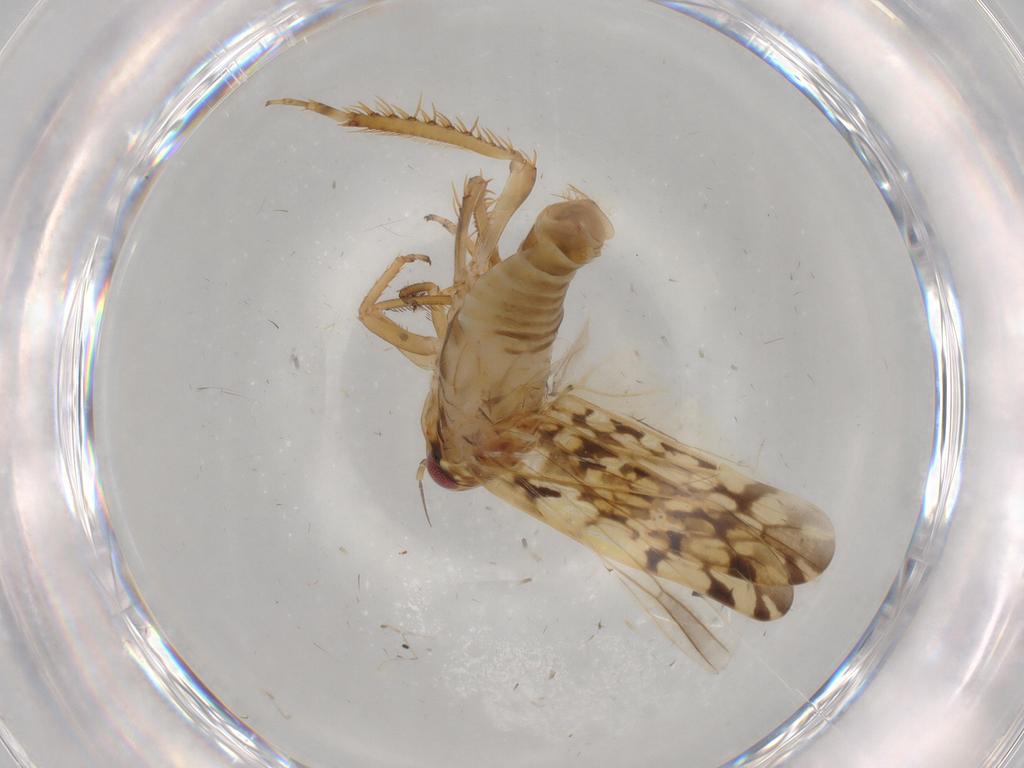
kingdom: Animalia
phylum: Arthropoda
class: Insecta
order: Hemiptera
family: Cicadellidae
